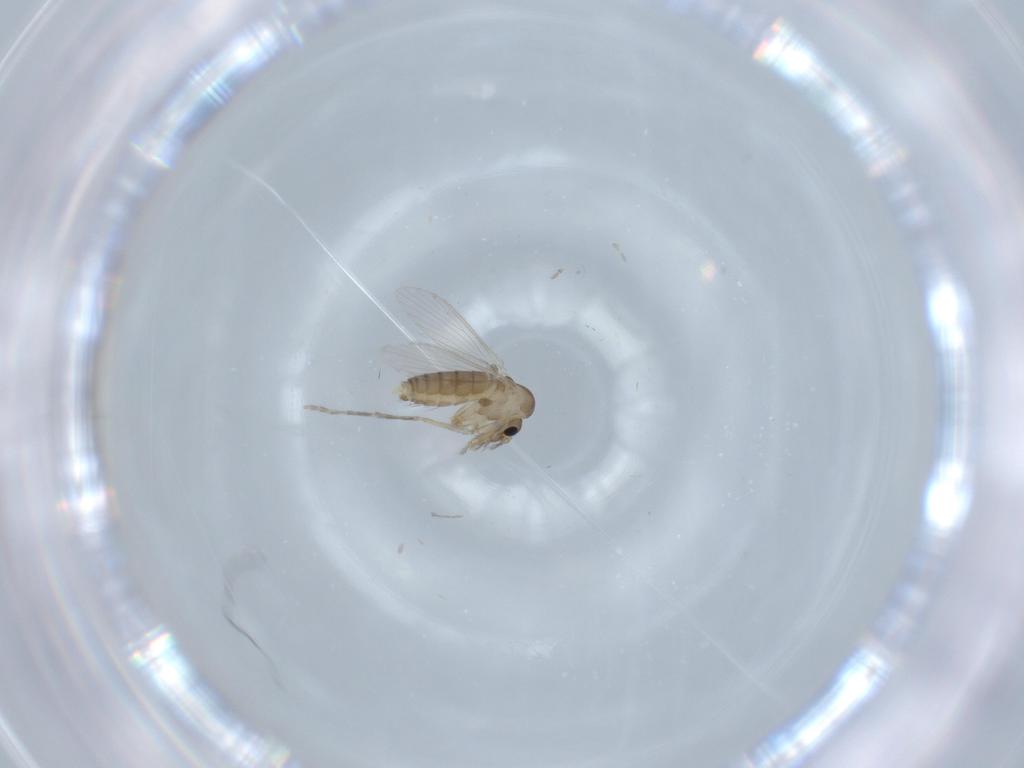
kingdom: Animalia
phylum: Arthropoda
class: Insecta
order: Diptera
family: Psychodidae
